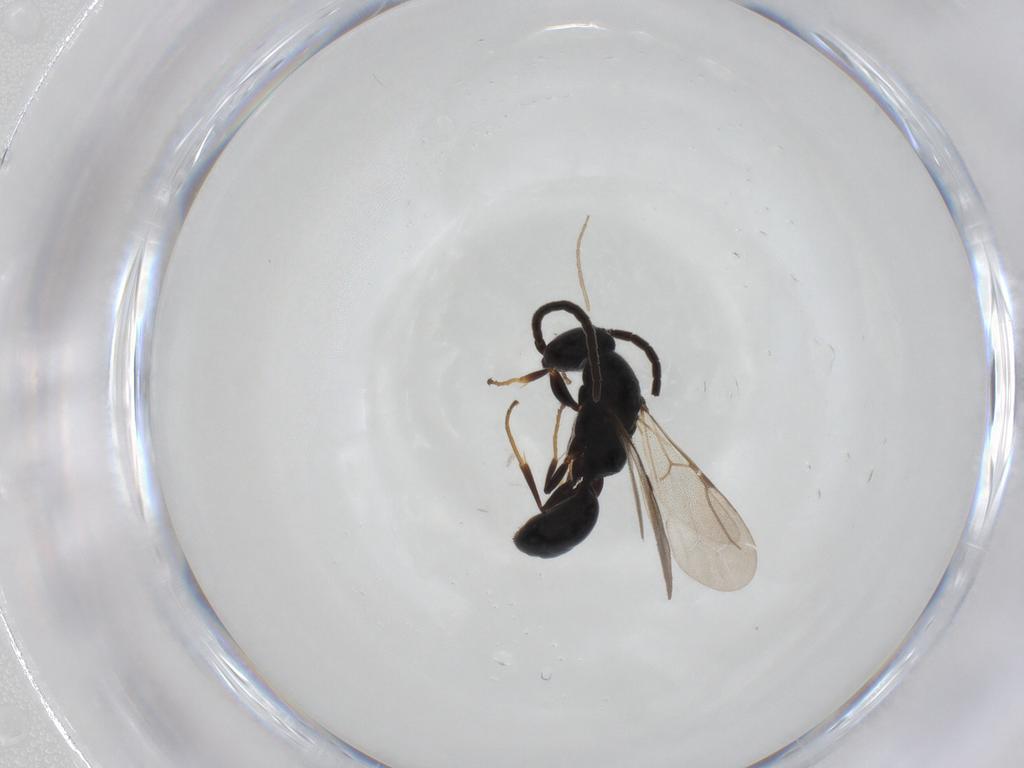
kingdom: Animalia
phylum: Arthropoda
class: Insecta
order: Hymenoptera
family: Bethylidae
